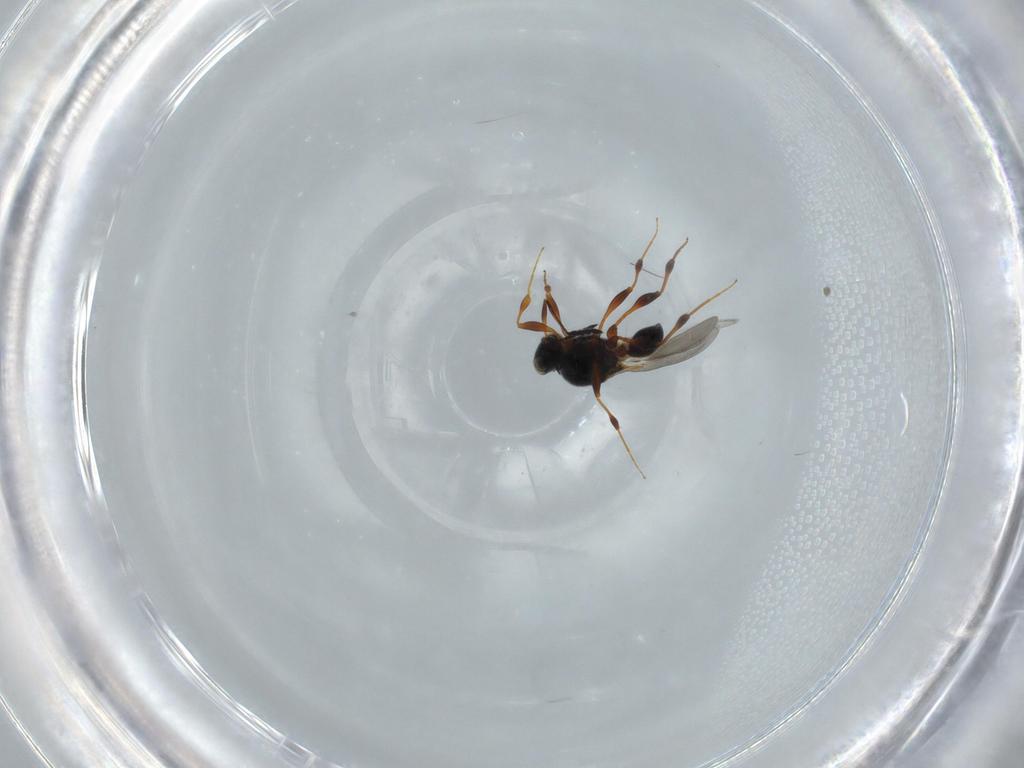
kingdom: Animalia
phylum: Arthropoda
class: Insecta
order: Hymenoptera
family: Platygastridae
